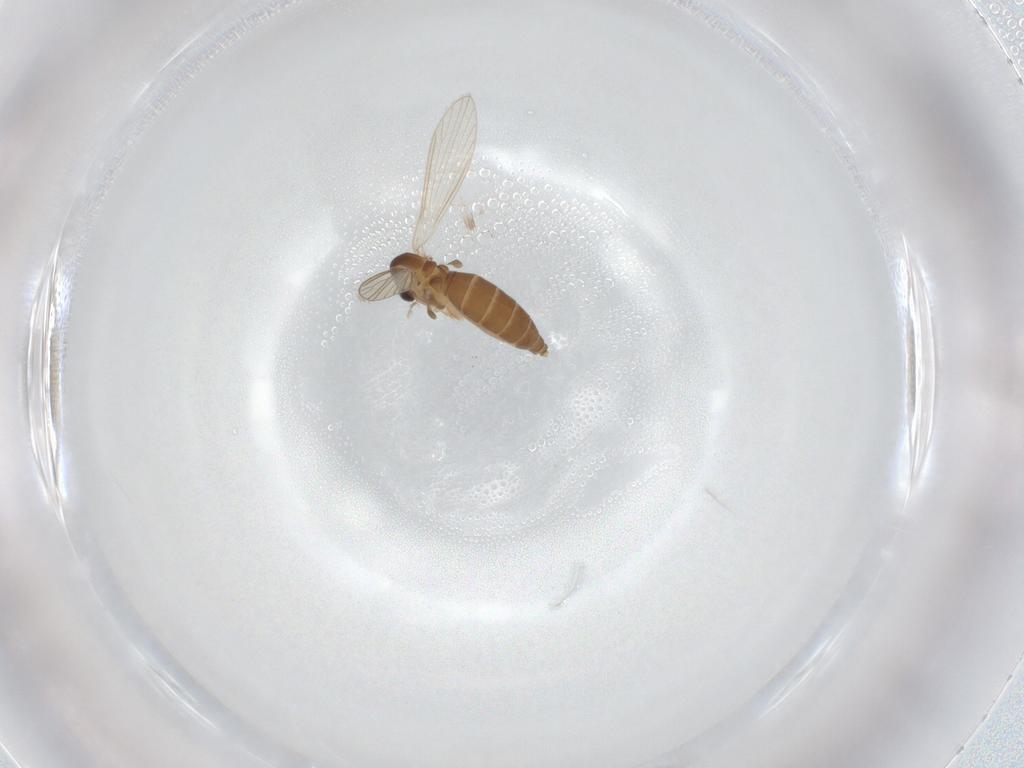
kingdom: Animalia
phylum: Arthropoda
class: Insecta
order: Diptera
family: Psychodidae
